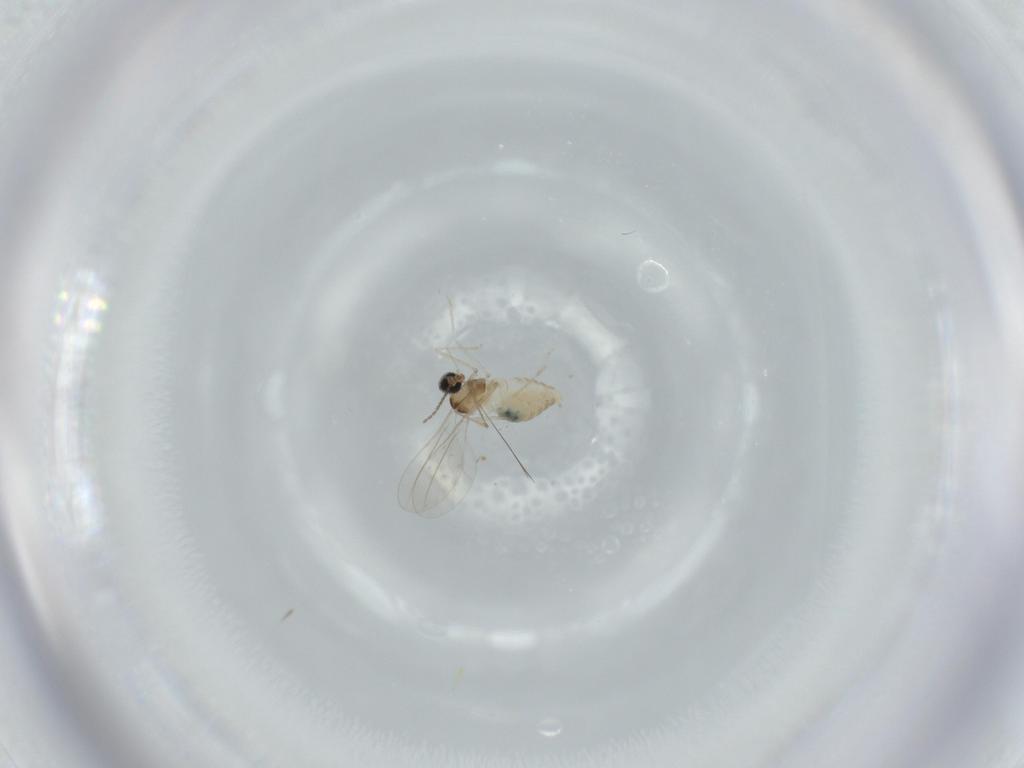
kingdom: Animalia
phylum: Arthropoda
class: Insecta
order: Diptera
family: Cecidomyiidae
